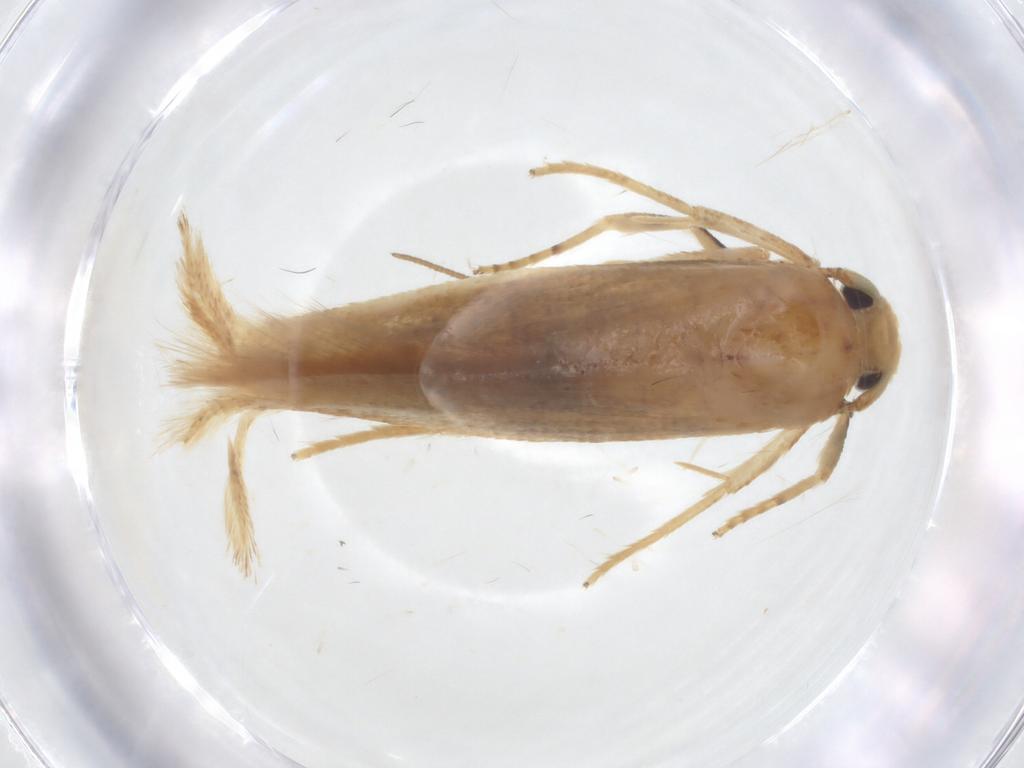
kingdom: Animalia
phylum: Arthropoda
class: Insecta
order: Lepidoptera
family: Stathmopodidae
